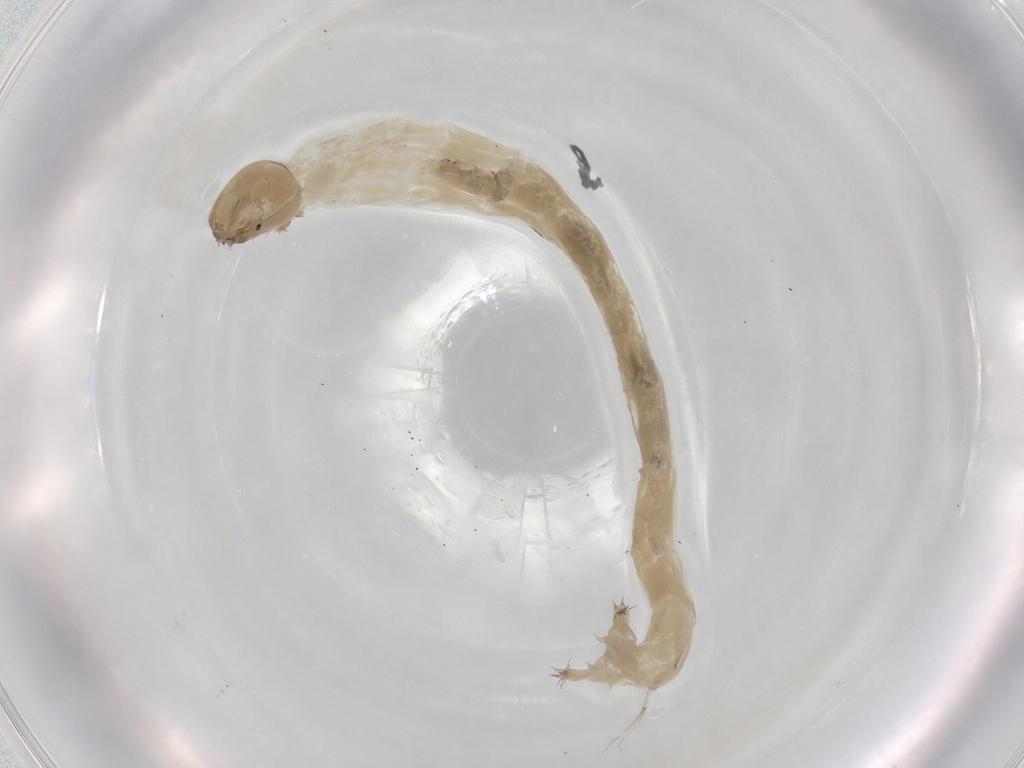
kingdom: Animalia
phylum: Arthropoda
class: Insecta
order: Diptera
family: Chironomidae
